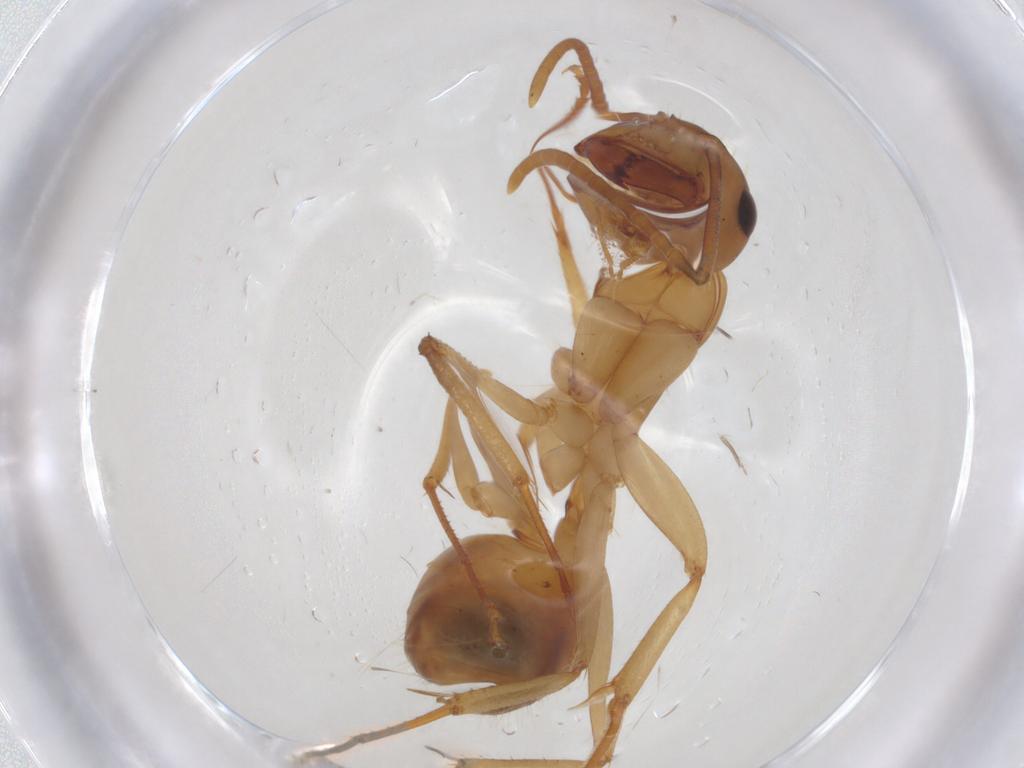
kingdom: Animalia
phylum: Arthropoda
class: Insecta
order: Hymenoptera
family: Formicidae
